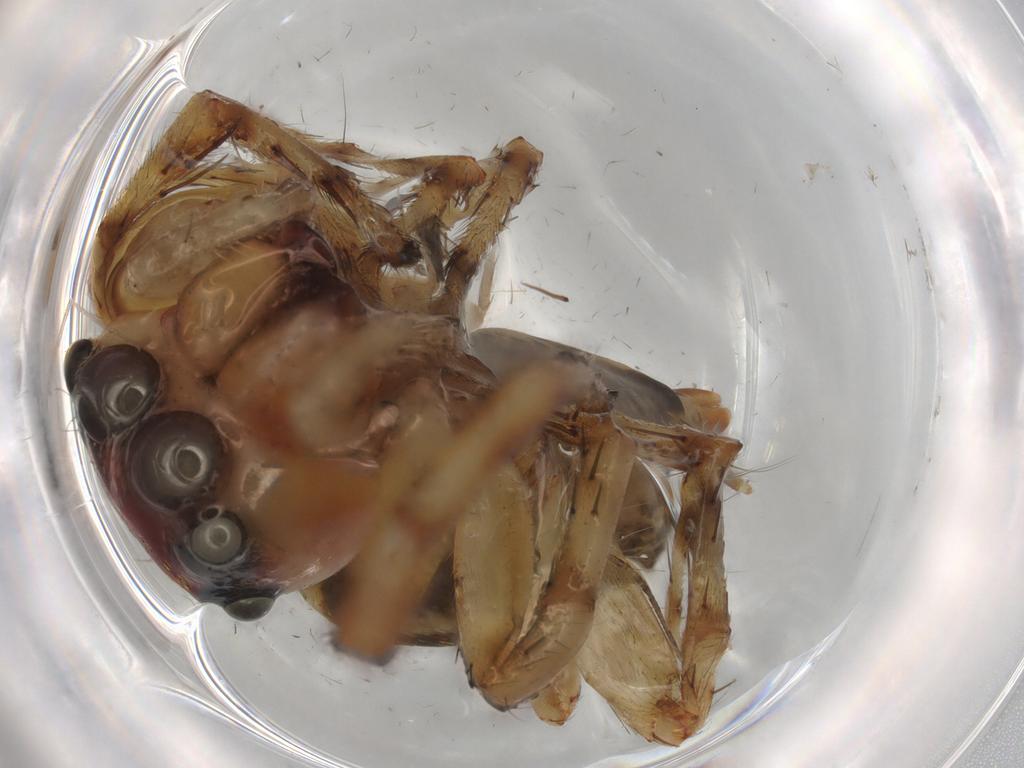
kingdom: Animalia
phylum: Arthropoda
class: Arachnida
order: Araneae
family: Salticidae
